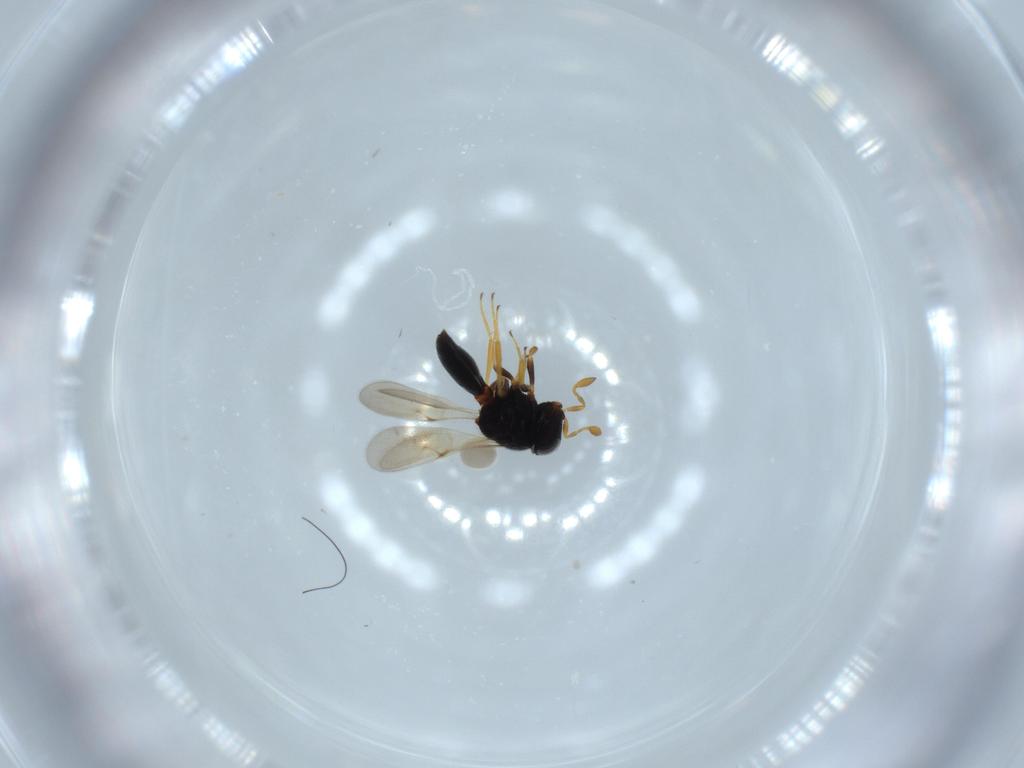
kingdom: Animalia
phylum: Arthropoda
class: Insecta
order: Hymenoptera
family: Scelionidae
